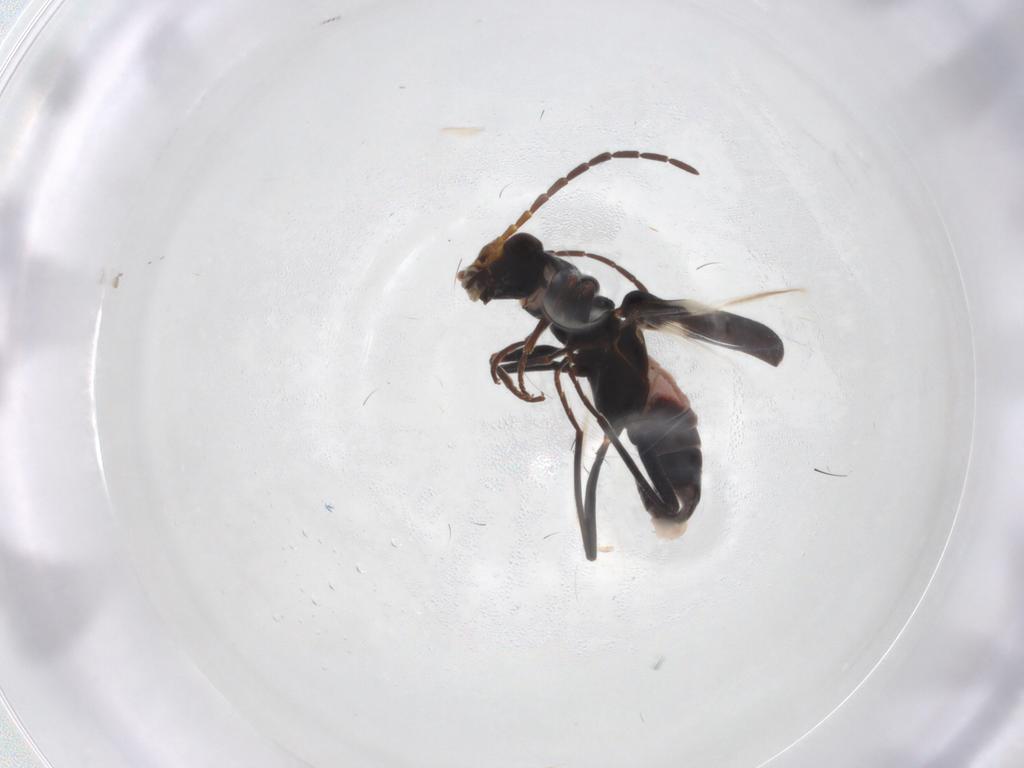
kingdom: Animalia
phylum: Arthropoda
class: Insecta
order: Coleoptera
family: Melyridae
